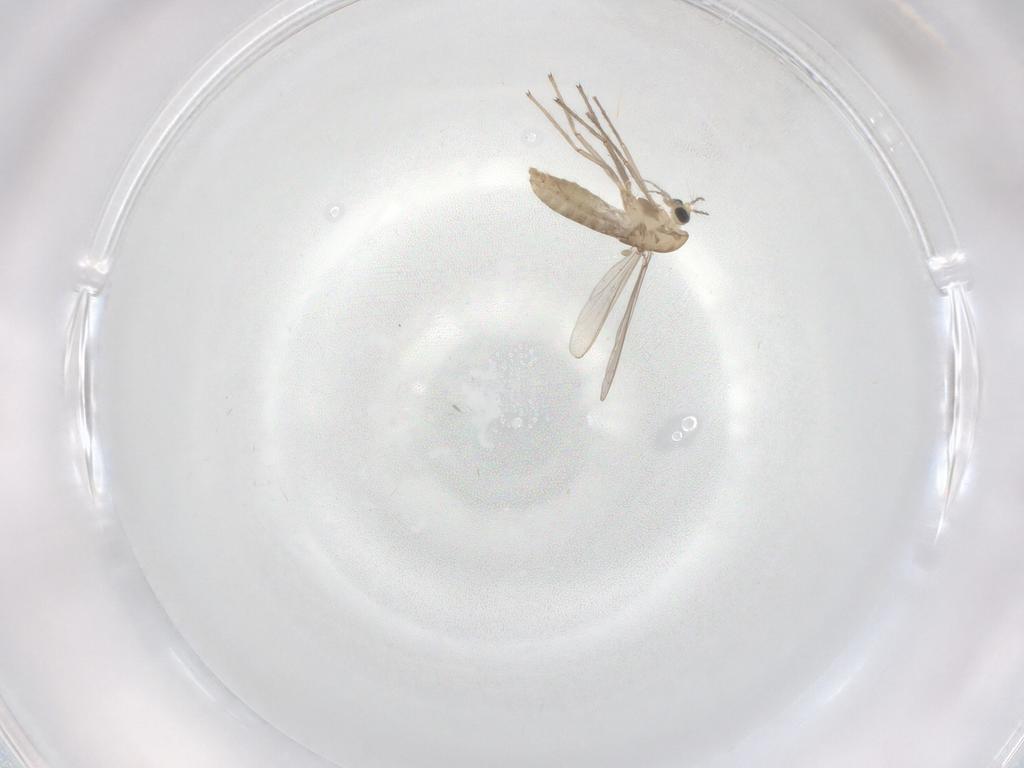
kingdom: Animalia
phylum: Arthropoda
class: Insecta
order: Diptera
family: Chironomidae
